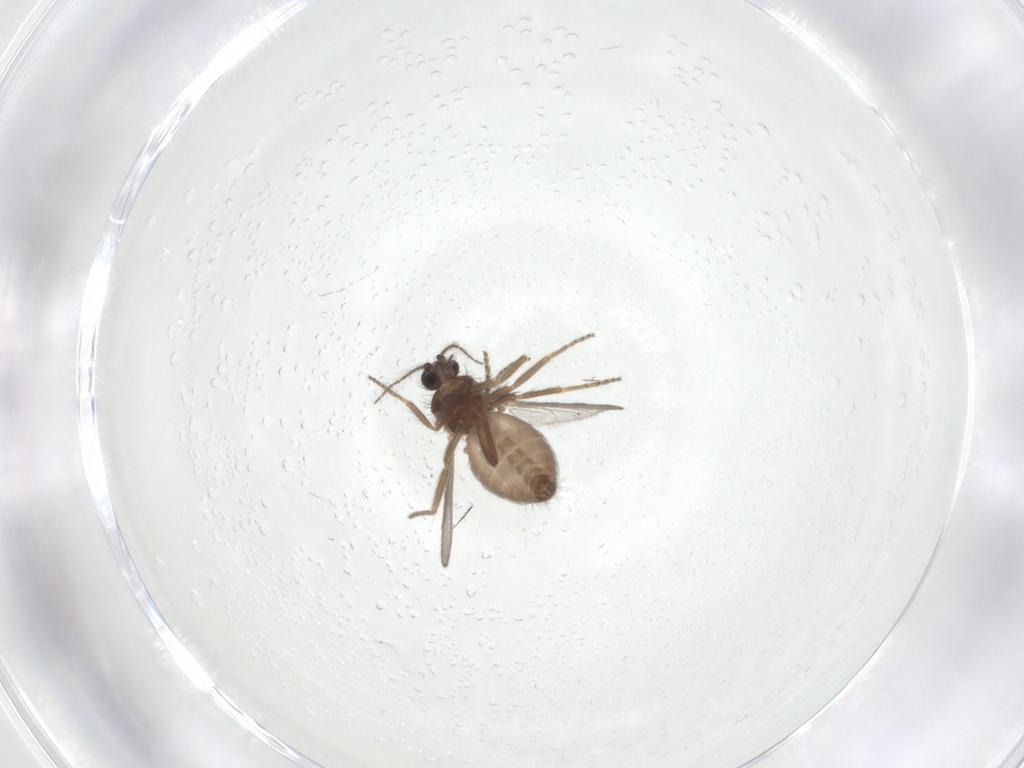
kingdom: Animalia
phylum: Arthropoda
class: Insecta
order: Diptera
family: Ceratopogonidae
